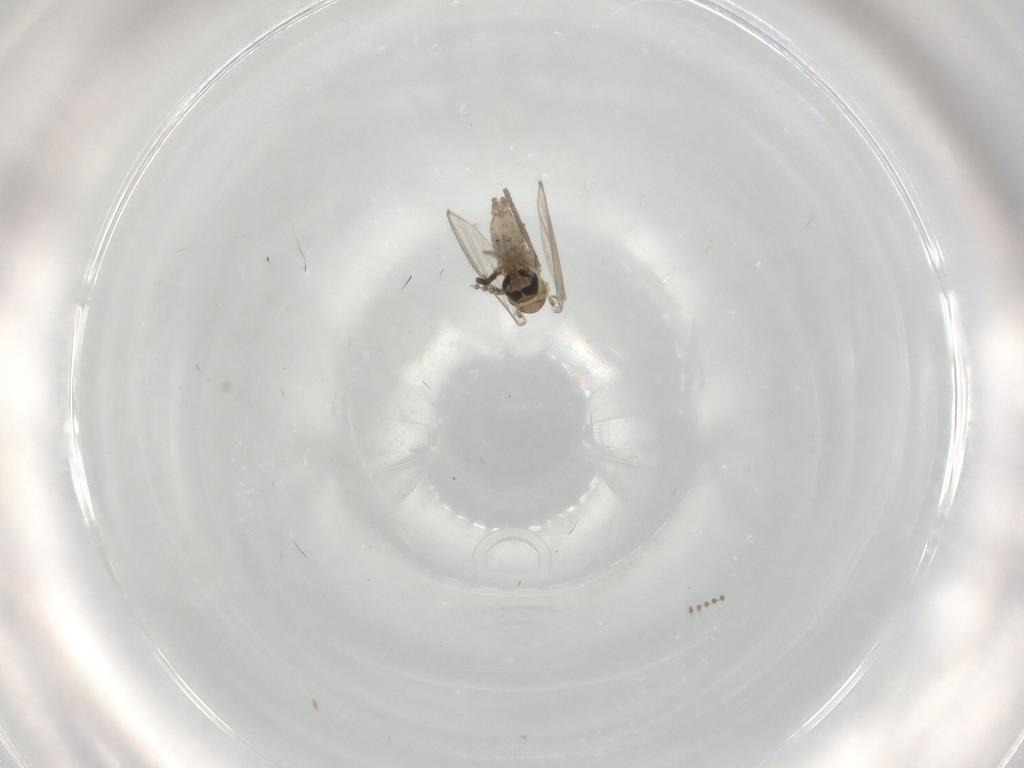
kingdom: Animalia
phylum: Arthropoda
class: Insecta
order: Diptera
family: Psychodidae
